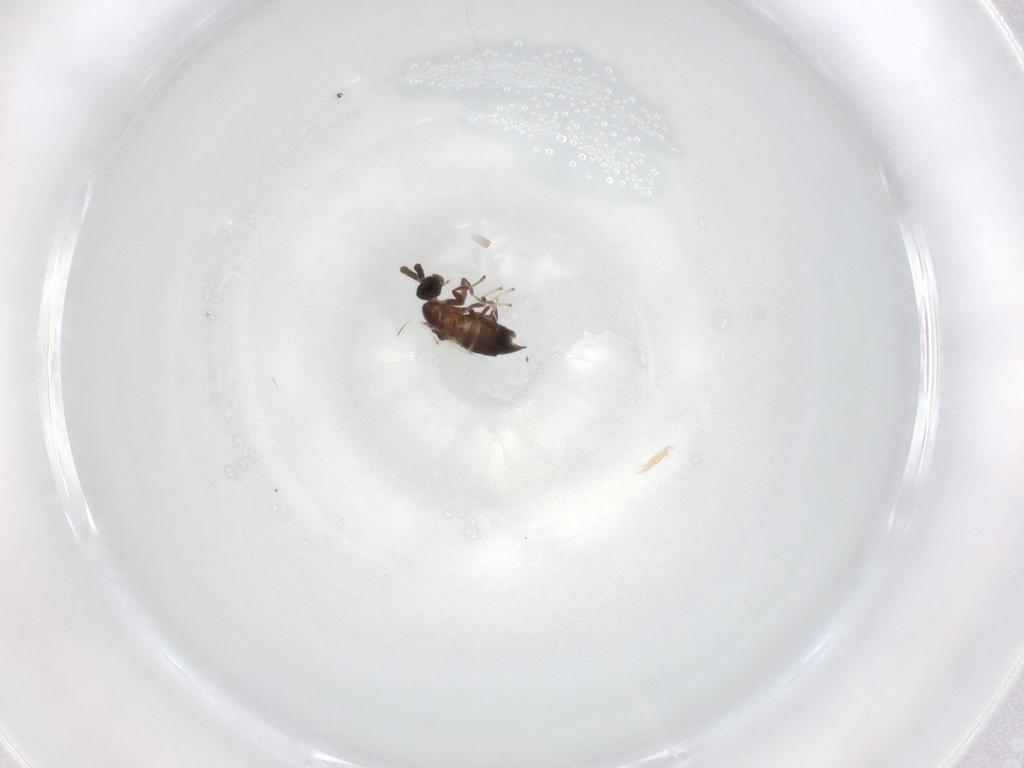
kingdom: Animalia
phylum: Arthropoda
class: Insecta
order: Diptera
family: Scatopsidae
